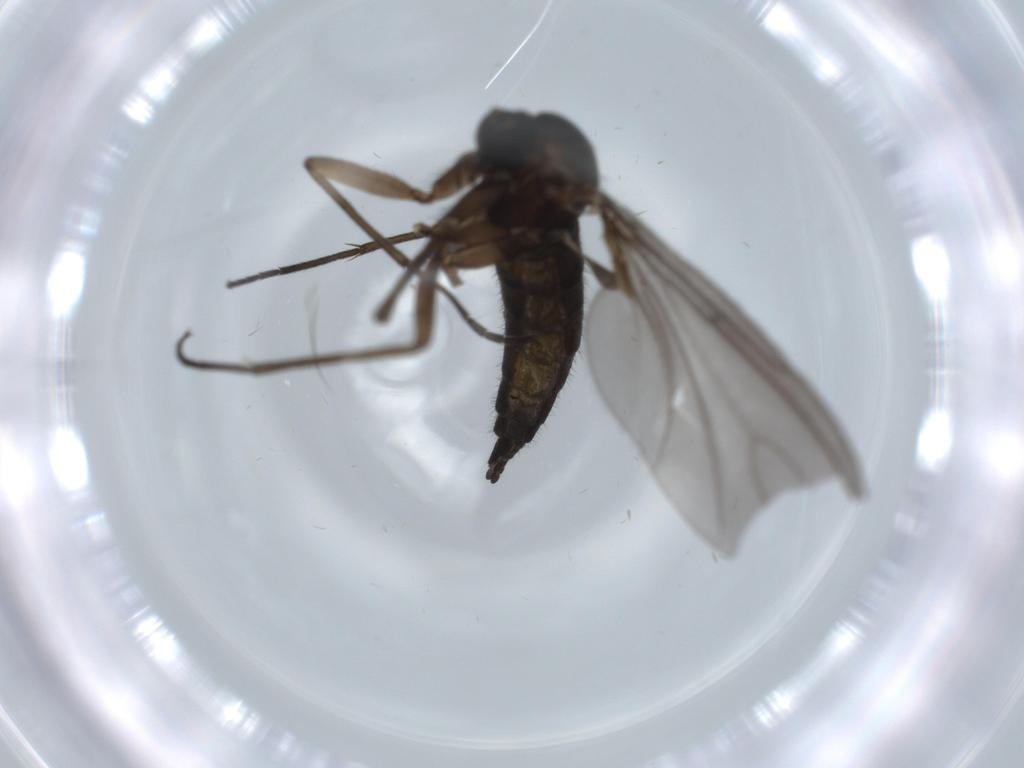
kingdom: Animalia
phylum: Arthropoda
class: Insecta
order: Diptera
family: Sciaridae
